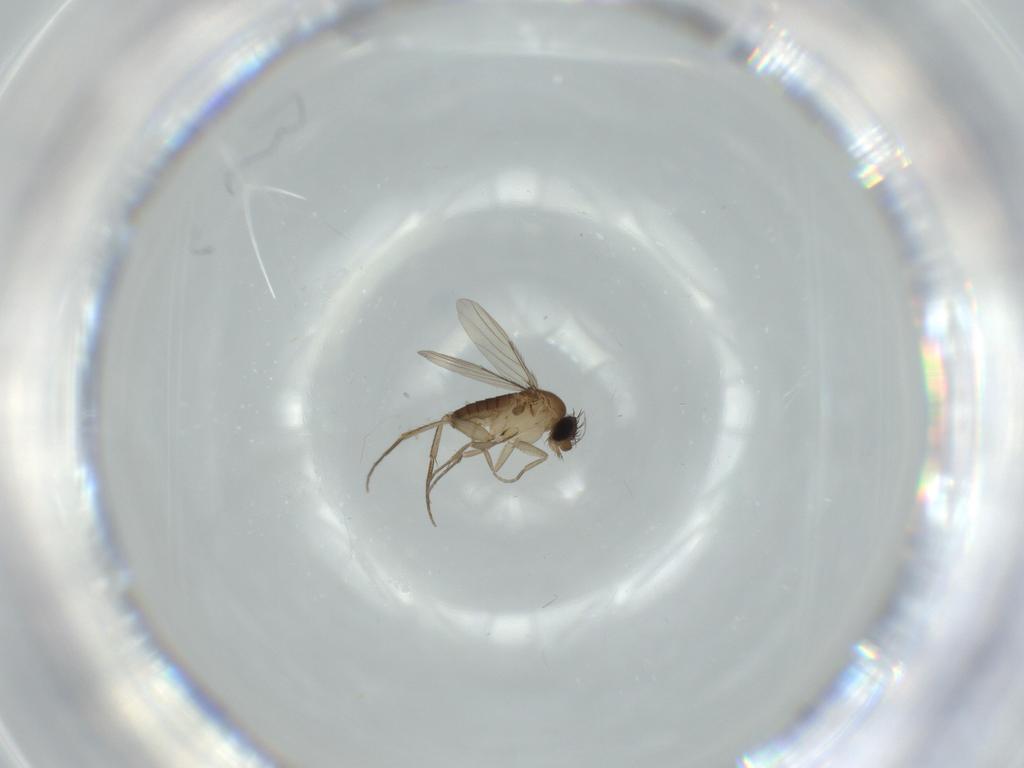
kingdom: Animalia
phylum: Arthropoda
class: Insecta
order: Diptera
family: Phoridae
